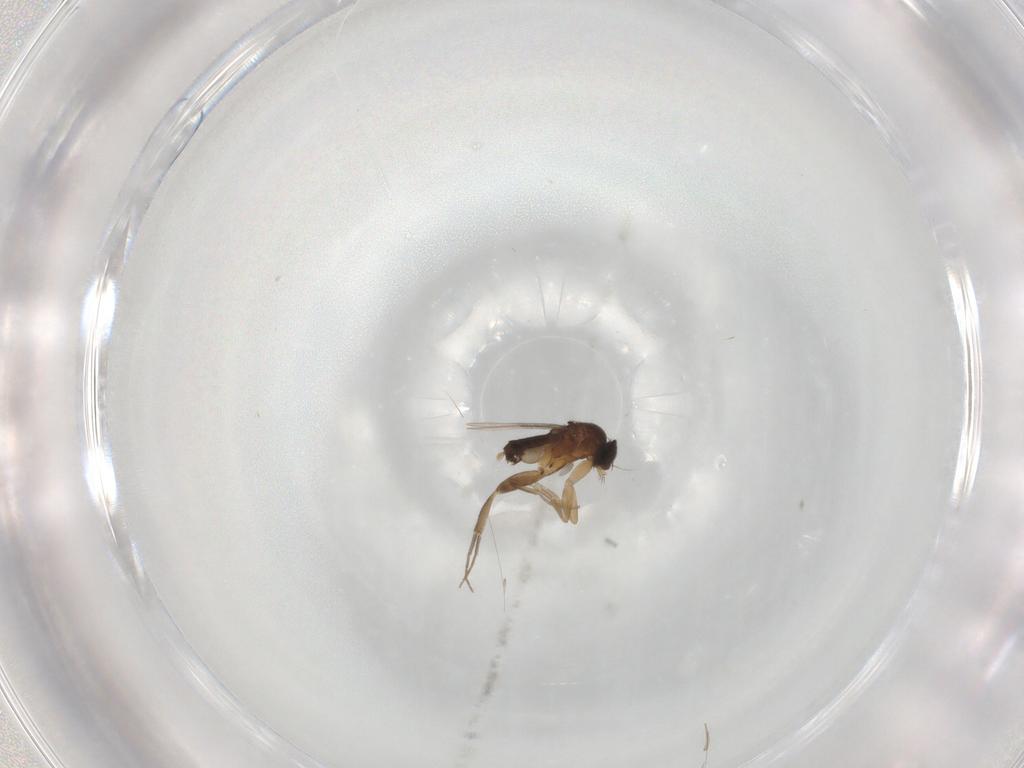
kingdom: Animalia
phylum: Arthropoda
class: Insecta
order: Diptera
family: Phoridae
